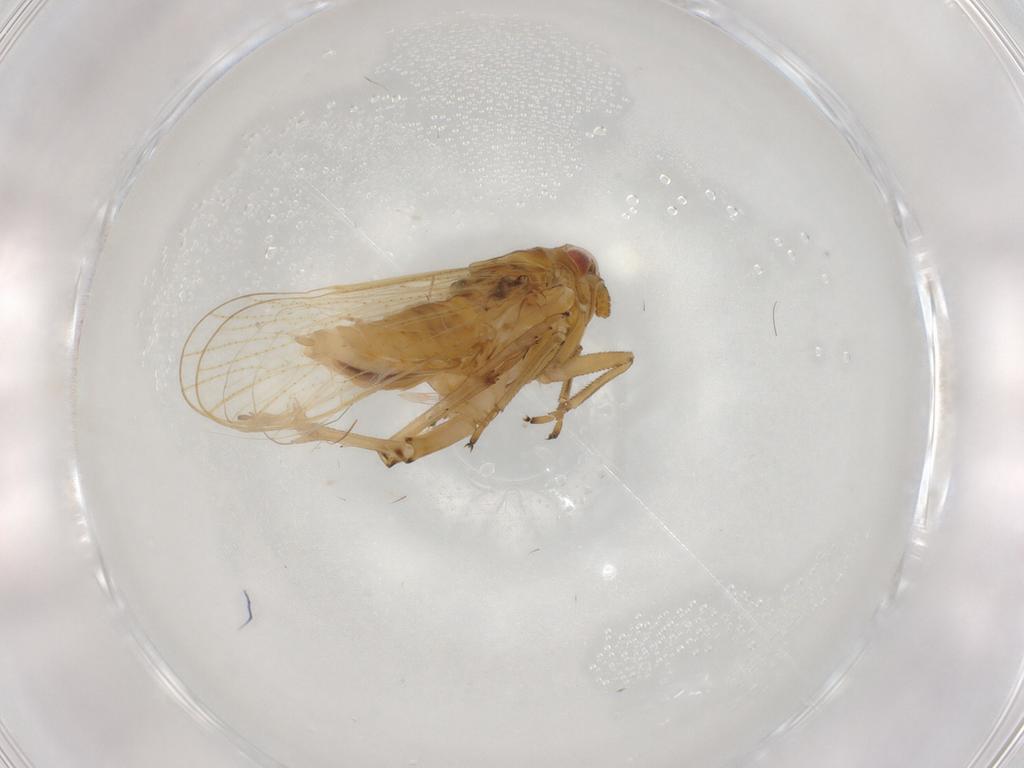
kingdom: Animalia
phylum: Arthropoda
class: Insecta
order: Hemiptera
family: Delphacidae
